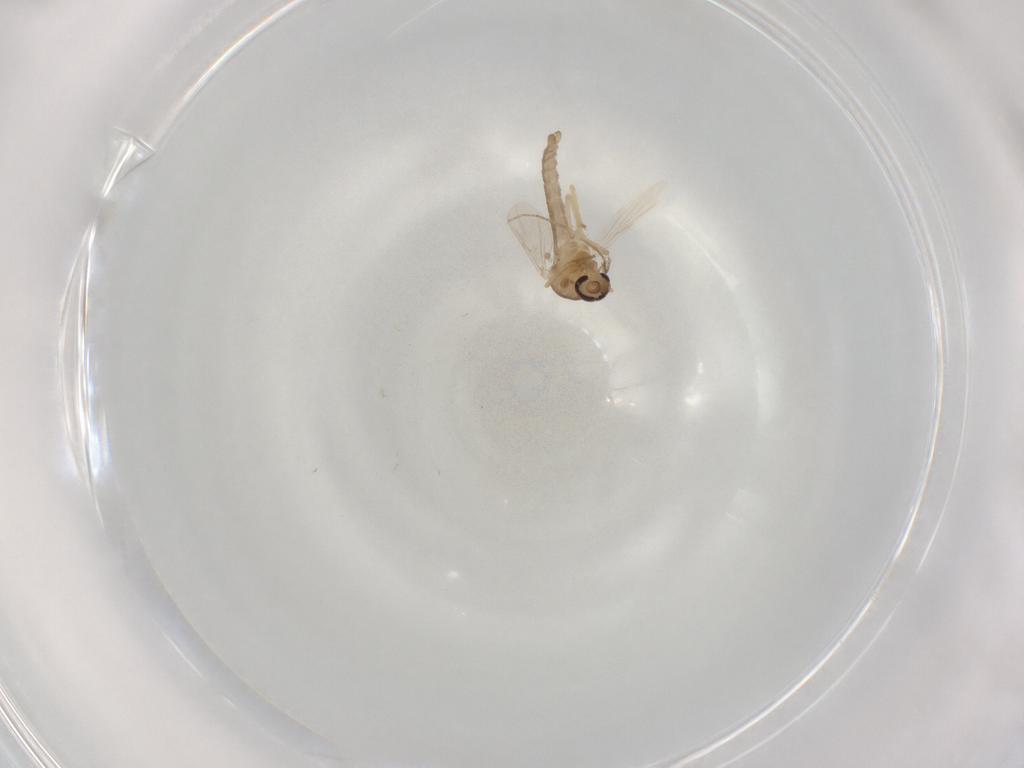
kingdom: Animalia
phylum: Arthropoda
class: Insecta
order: Diptera
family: Ceratopogonidae
